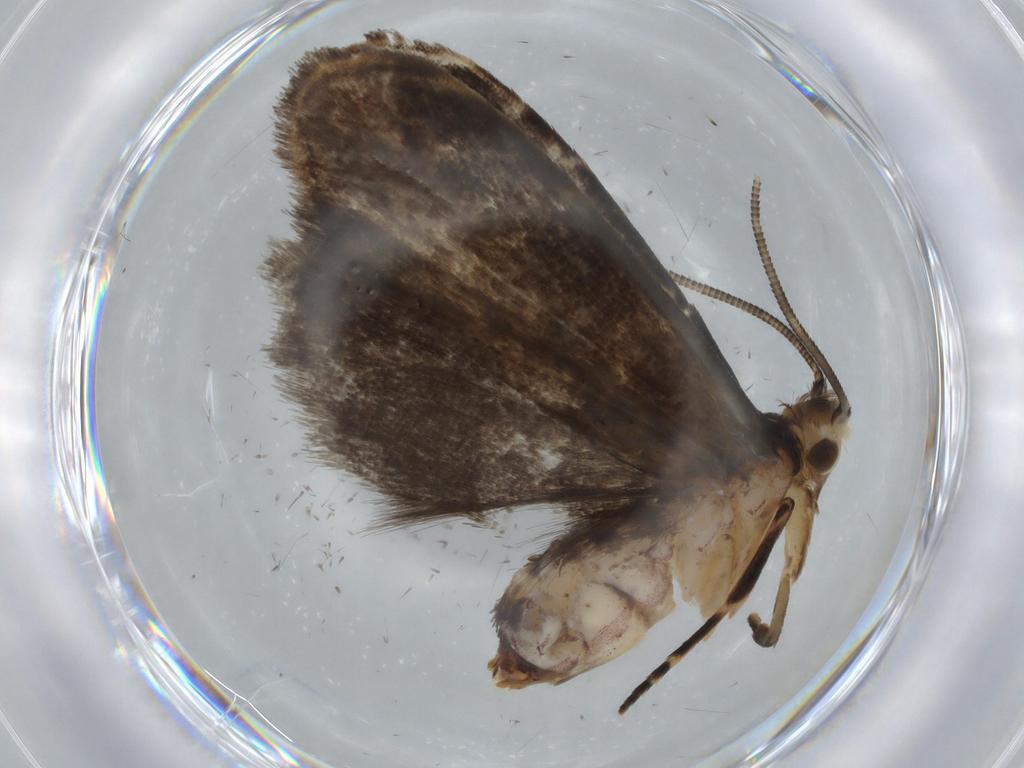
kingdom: Animalia
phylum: Arthropoda
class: Insecta
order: Lepidoptera
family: Dryadaulidae
